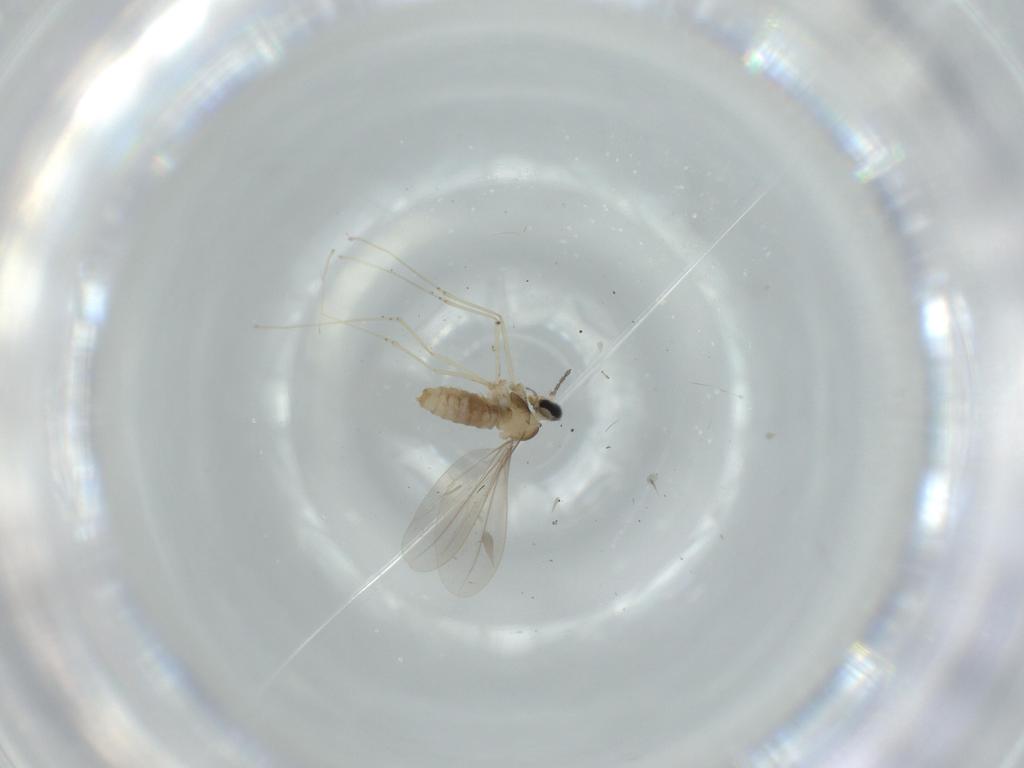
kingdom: Animalia
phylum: Arthropoda
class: Insecta
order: Diptera
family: Cecidomyiidae
